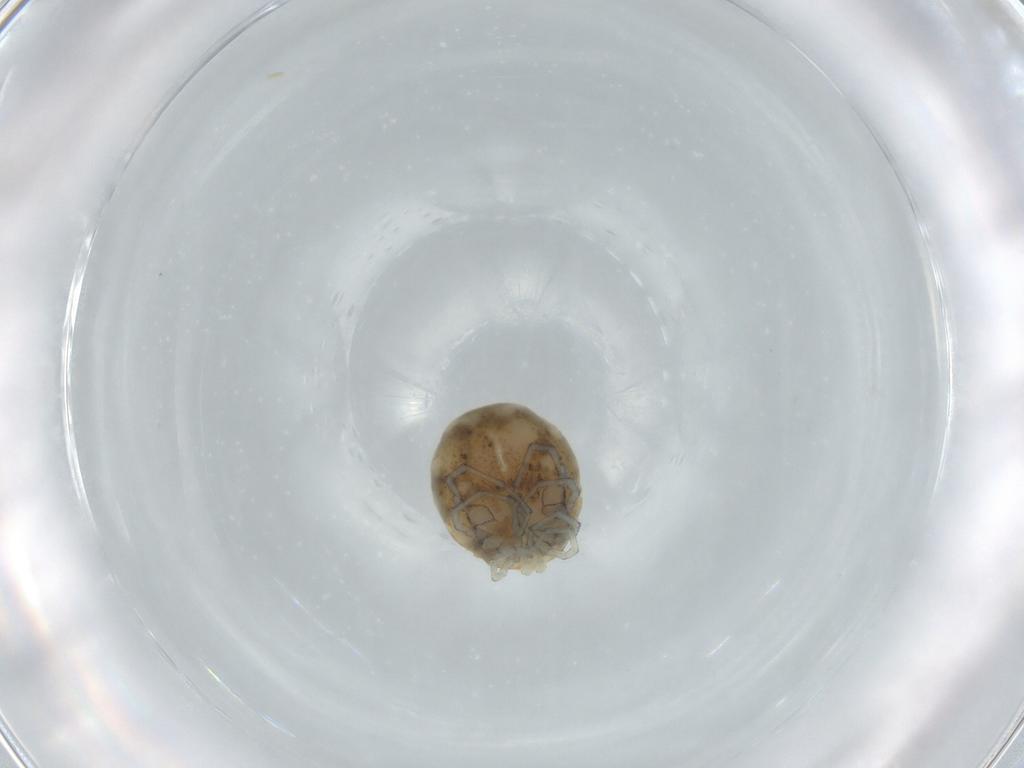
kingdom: Animalia
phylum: Arthropoda
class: Arachnida
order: Trombidiformes
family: Lebertiidae
